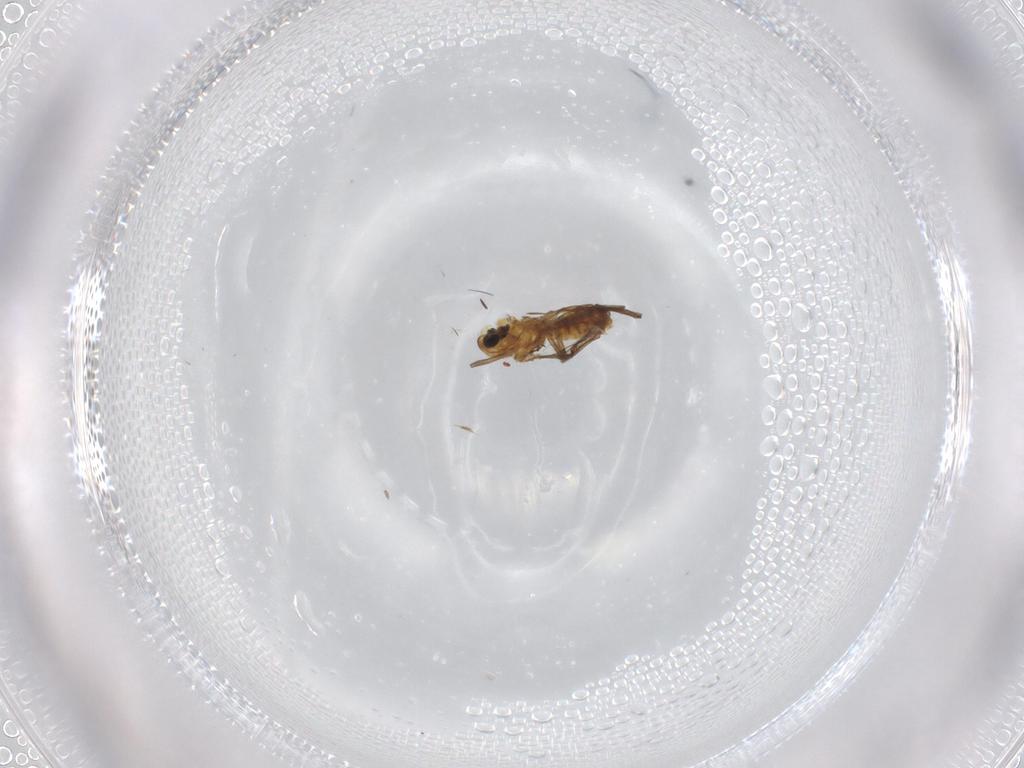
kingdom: Animalia
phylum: Arthropoda
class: Insecta
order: Diptera
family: Chironomidae
